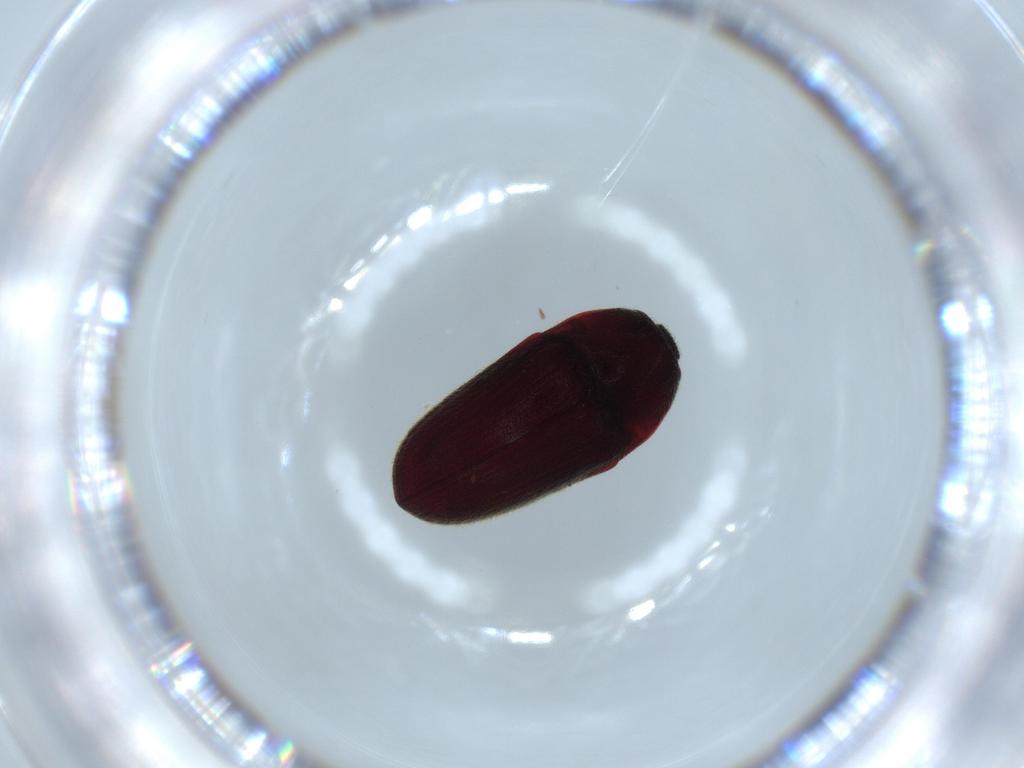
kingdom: Animalia
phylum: Arthropoda
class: Insecta
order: Coleoptera
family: Throscidae
